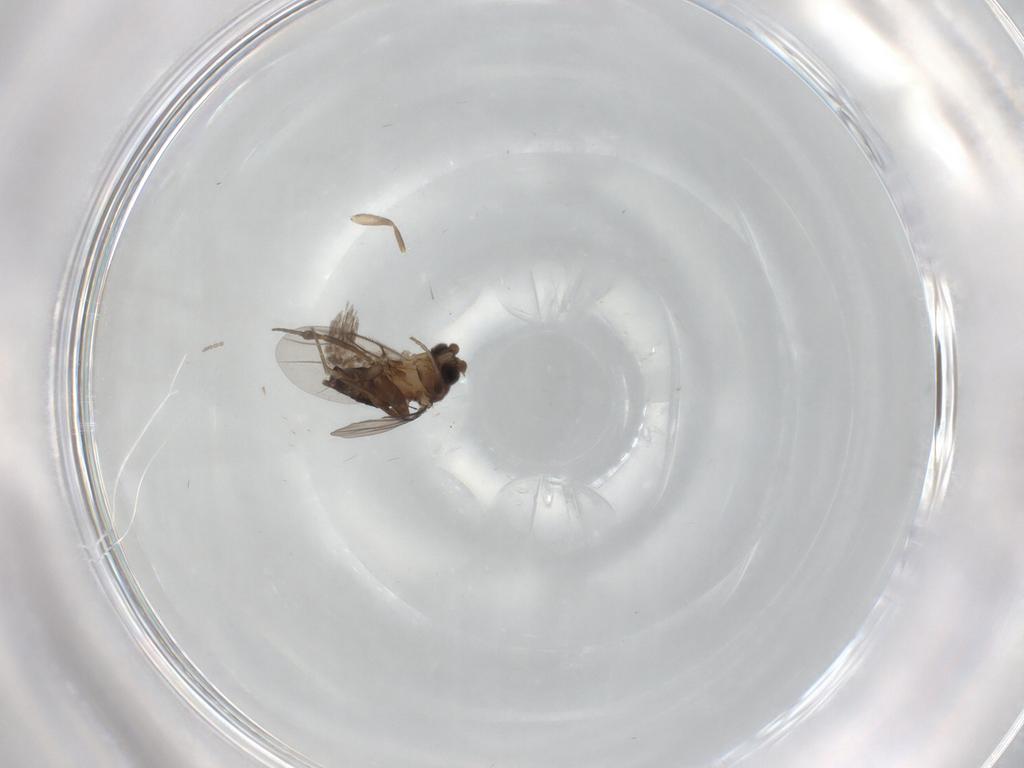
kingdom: Animalia
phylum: Arthropoda
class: Insecta
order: Diptera
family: Phoridae
